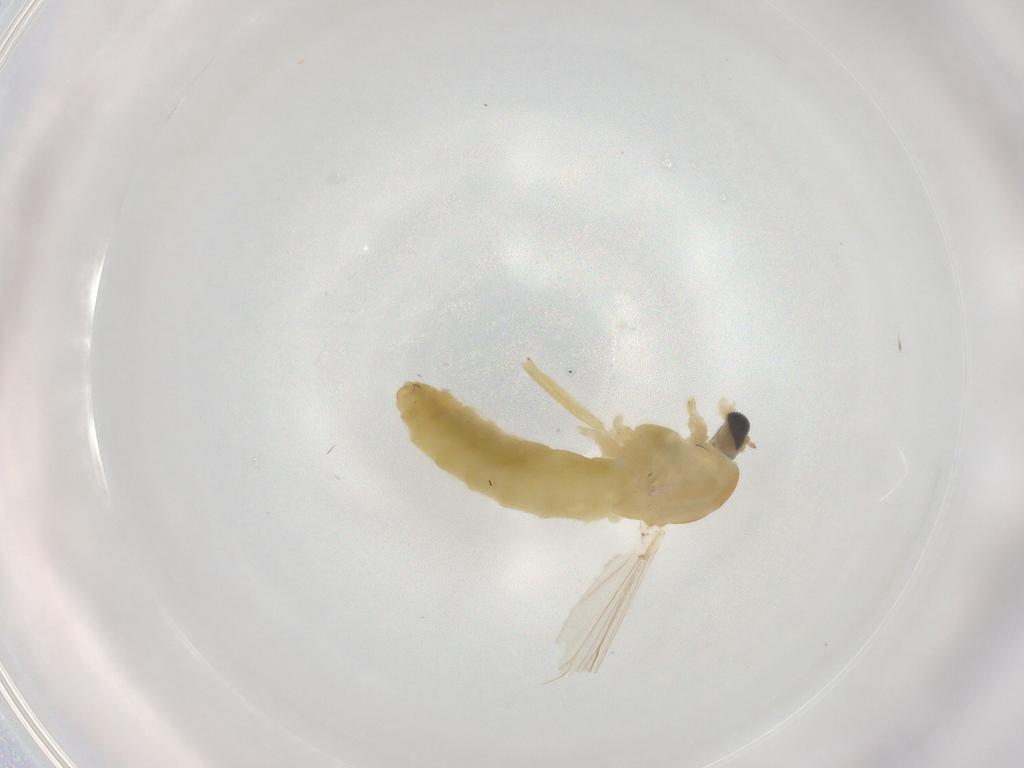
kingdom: Animalia
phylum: Arthropoda
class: Insecta
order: Diptera
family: Chironomidae
